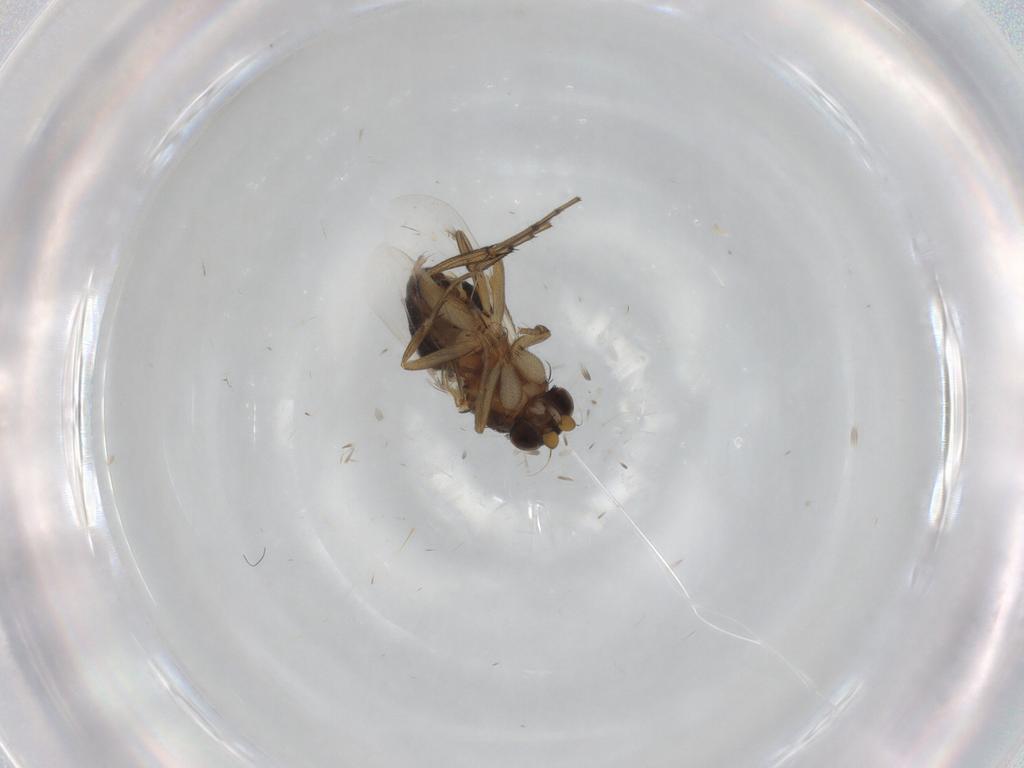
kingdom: Animalia
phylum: Arthropoda
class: Insecta
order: Diptera
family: Phoridae
